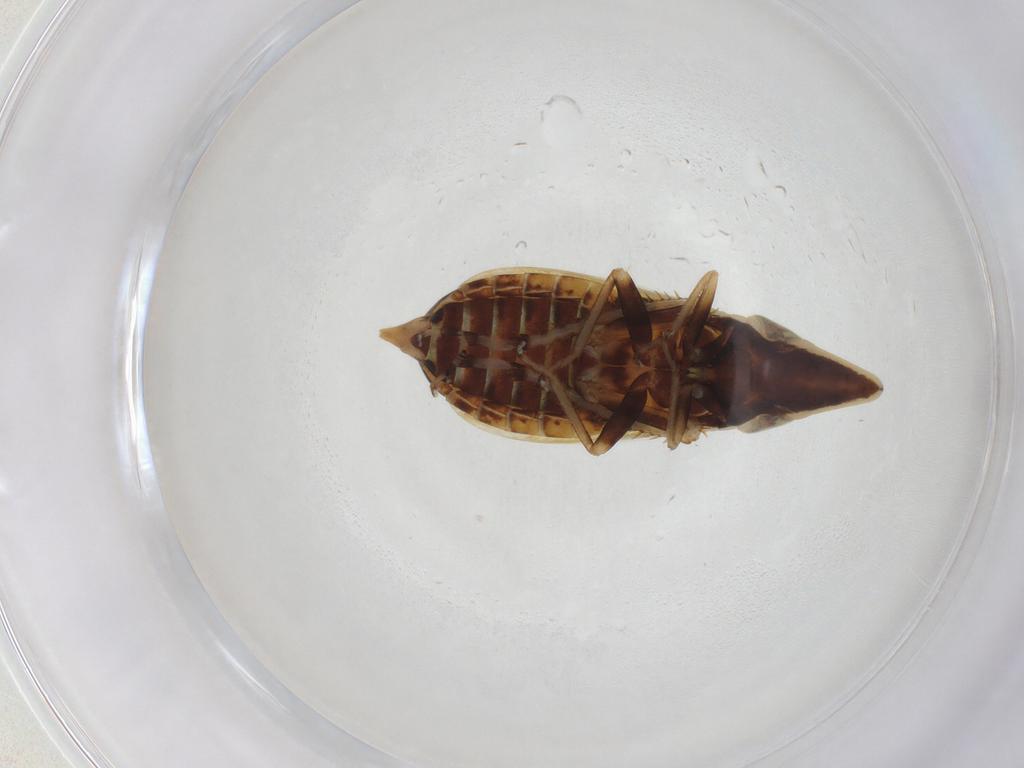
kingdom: Animalia
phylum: Arthropoda
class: Insecta
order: Hemiptera
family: Cicadellidae
